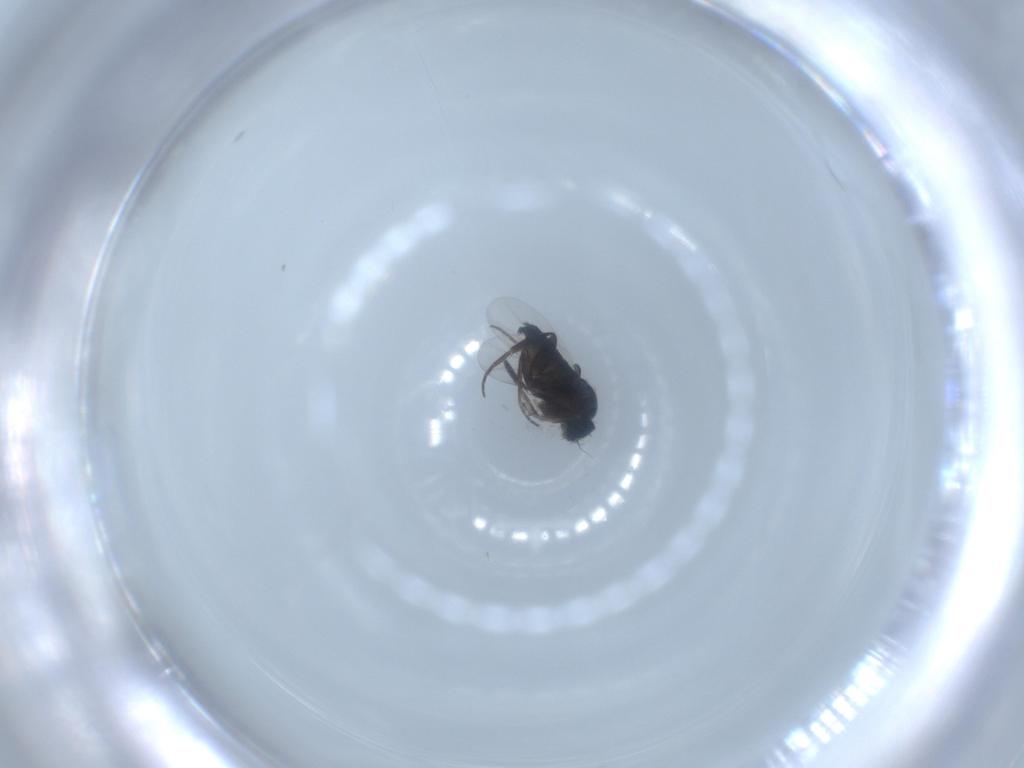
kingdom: Animalia
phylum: Arthropoda
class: Insecta
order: Diptera
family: Phoridae
